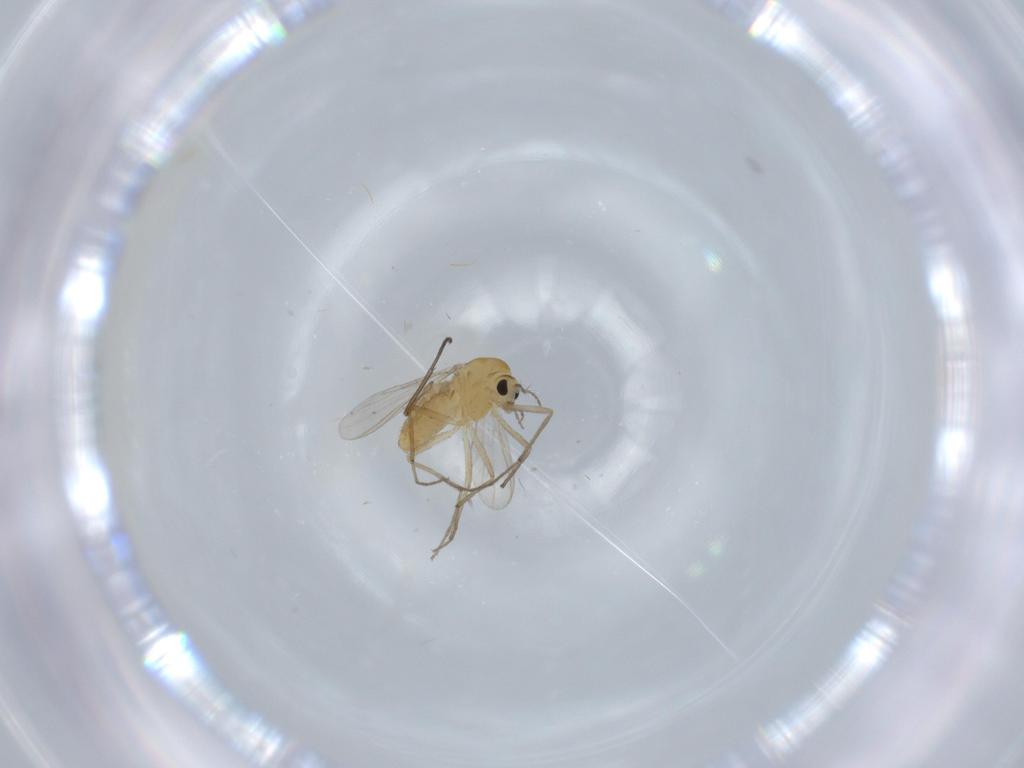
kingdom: Animalia
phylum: Arthropoda
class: Insecta
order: Diptera
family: Chironomidae
